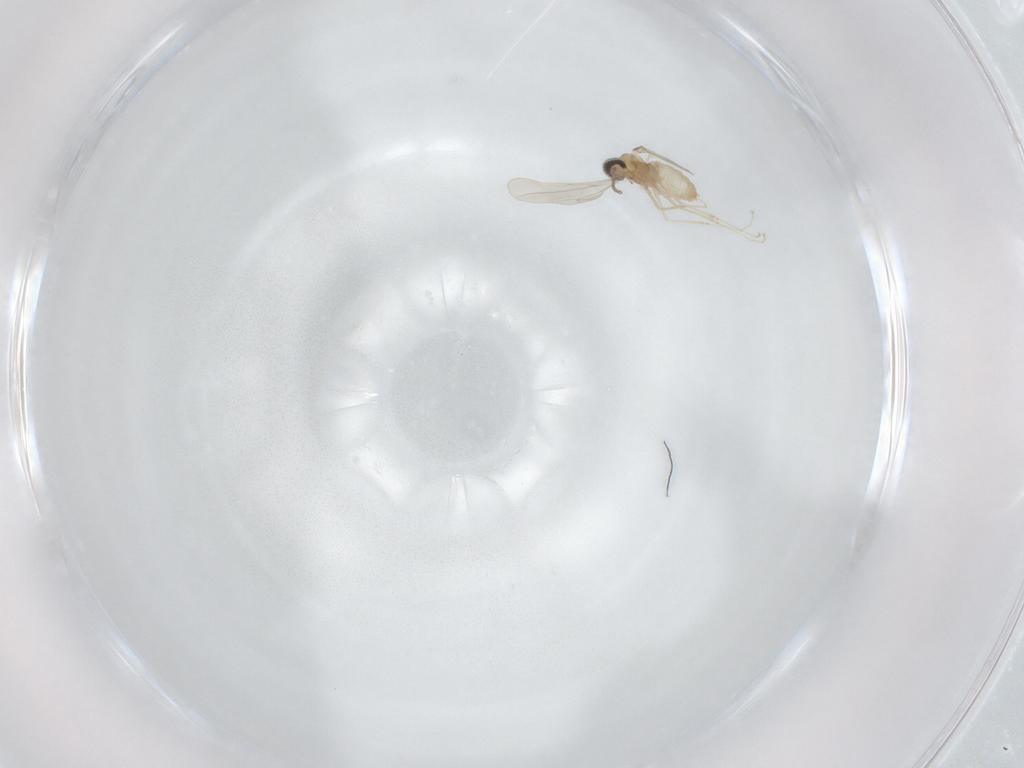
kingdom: Animalia
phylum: Arthropoda
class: Insecta
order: Diptera
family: Cecidomyiidae
